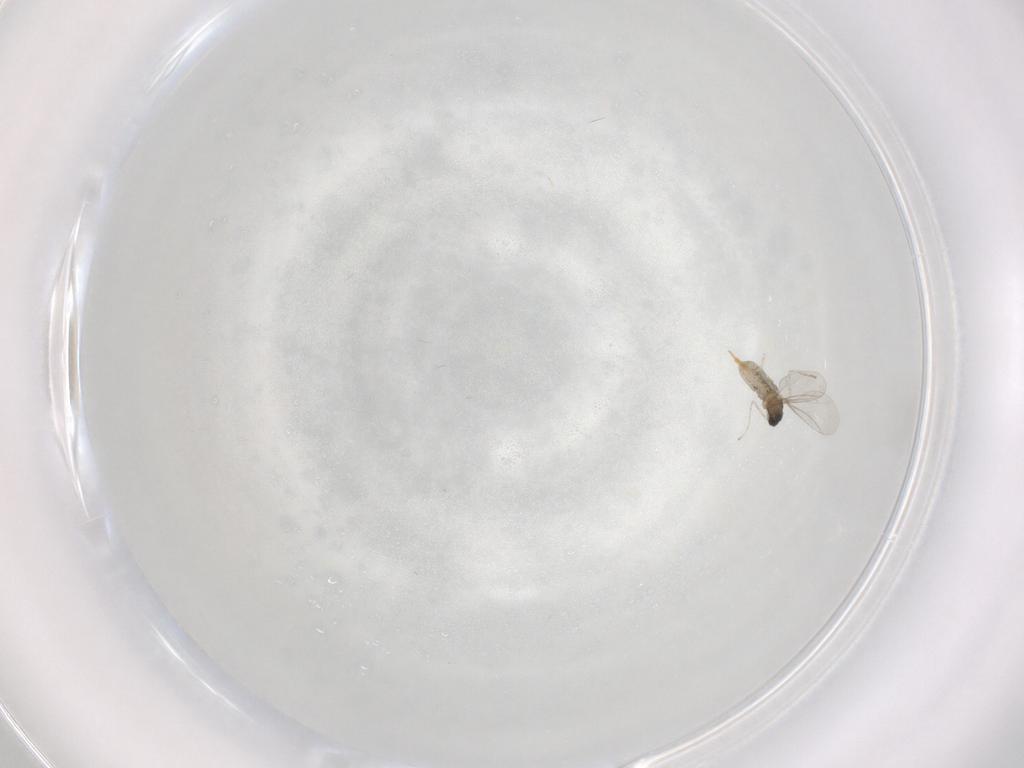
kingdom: Animalia
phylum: Arthropoda
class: Insecta
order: Diptera
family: Cecidomyiidae
